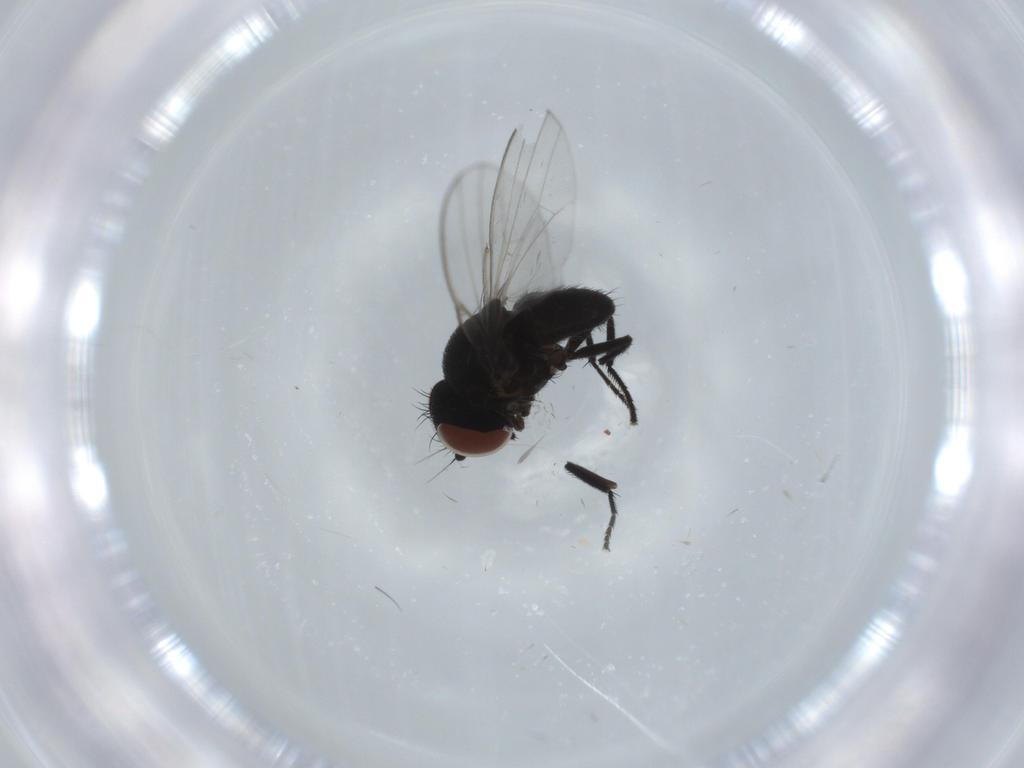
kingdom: Animalia
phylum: Arthropoda
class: Insecta
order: Diptera
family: Milichiidae
